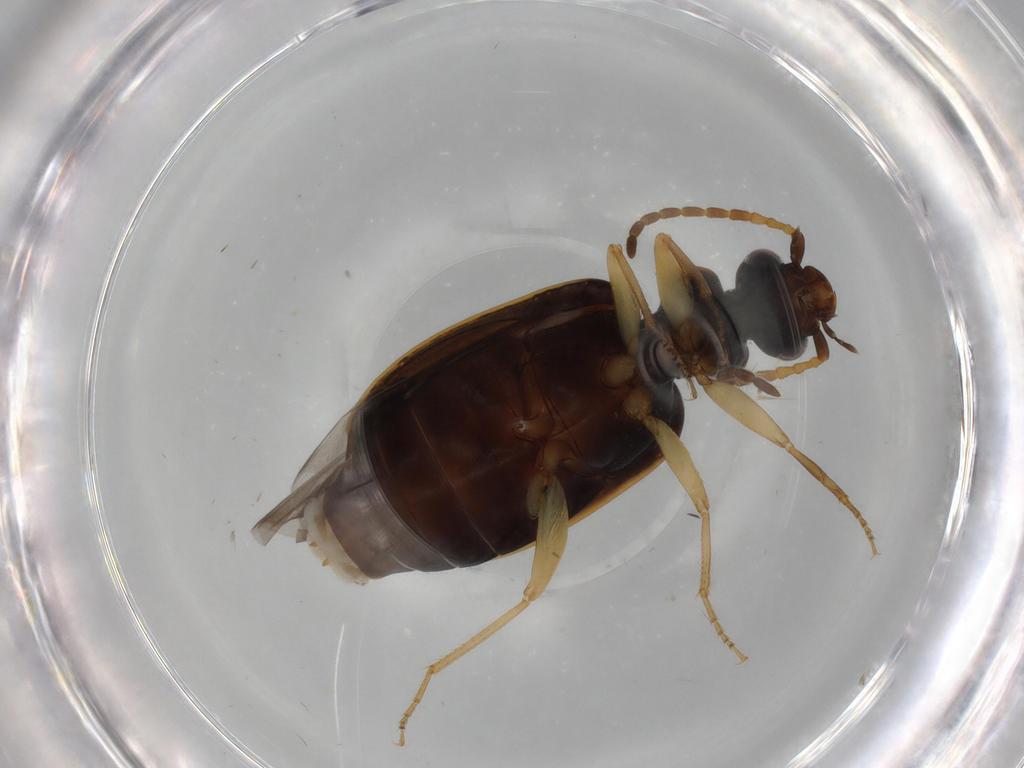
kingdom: Animalia
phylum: Arthropoda
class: Insecta
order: Coleoptera
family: Carabidae
